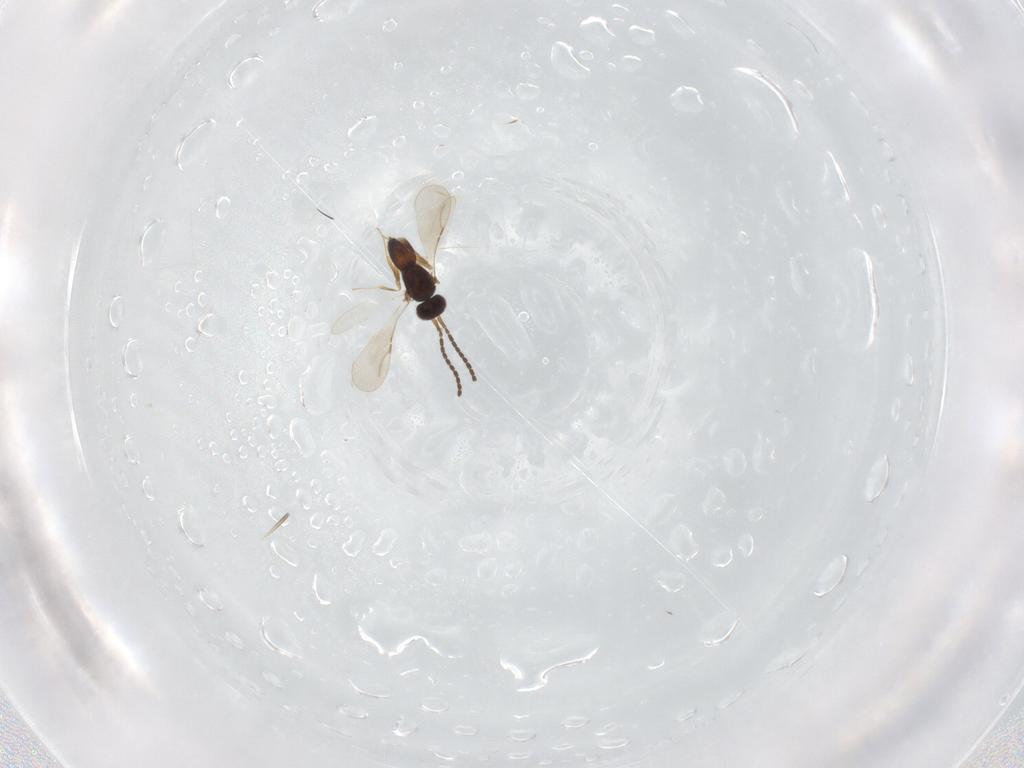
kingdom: Animalia
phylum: Arthropoda
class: Insecta
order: Hymenoptera
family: Ceraphronidae
